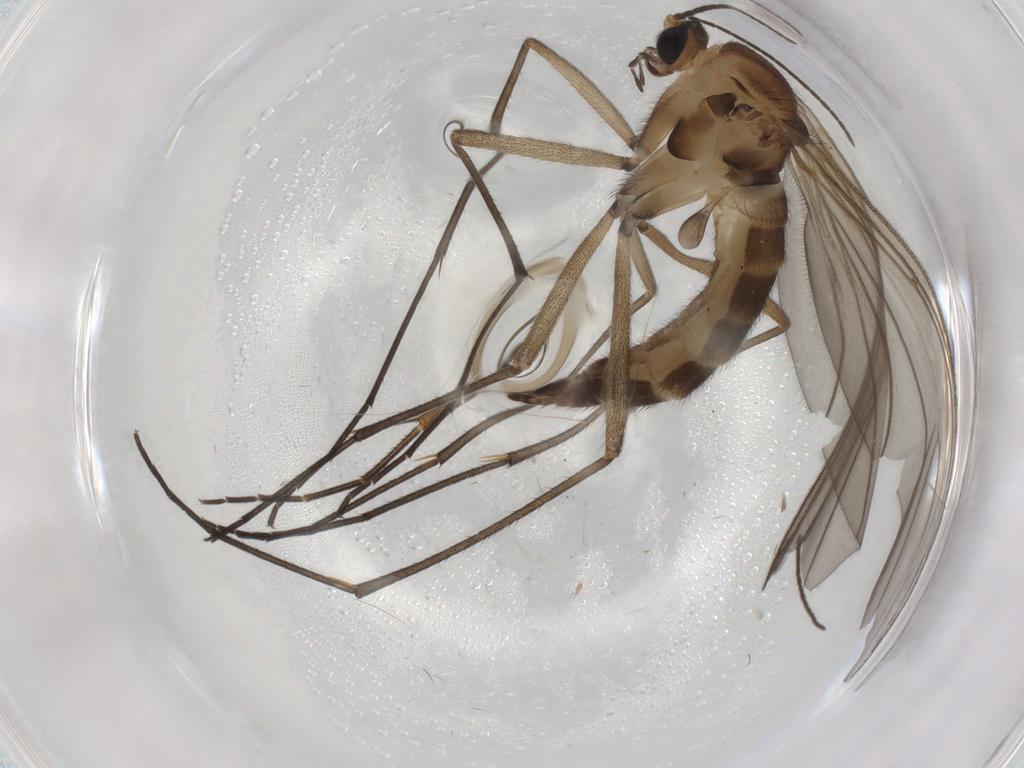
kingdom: Animalia
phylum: Arthropoda
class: Insecta
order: Diptera
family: Sciaridae
